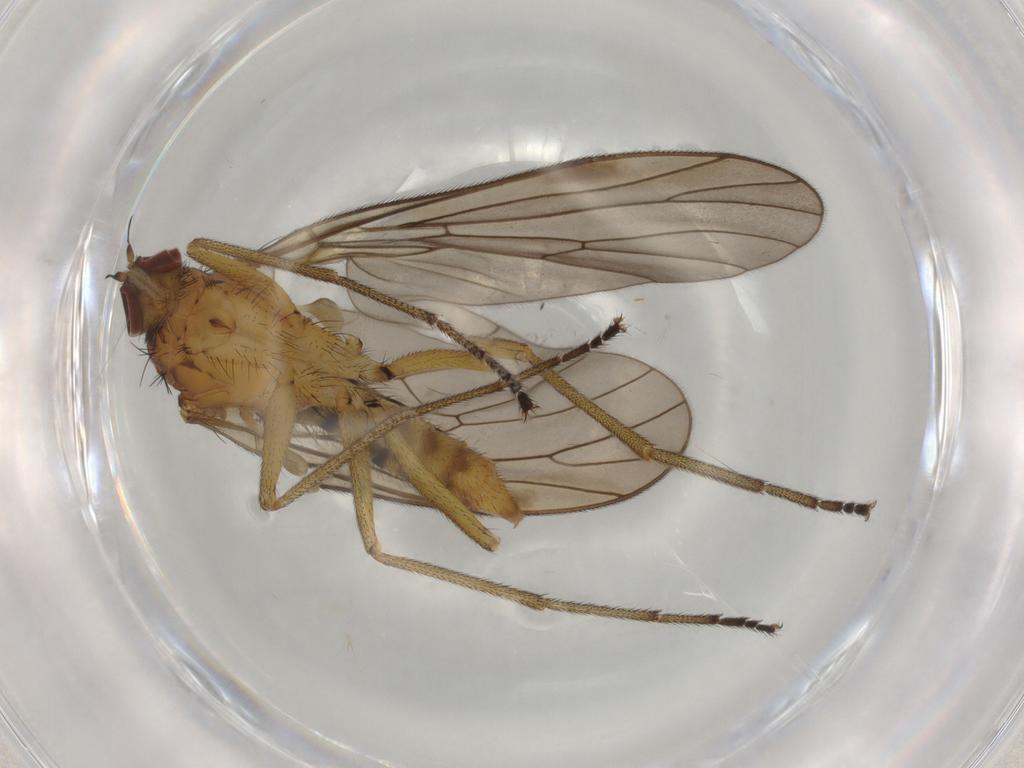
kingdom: Animalia
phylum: Arthropoda
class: Insecta
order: Diptera
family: Brachystomatidae
